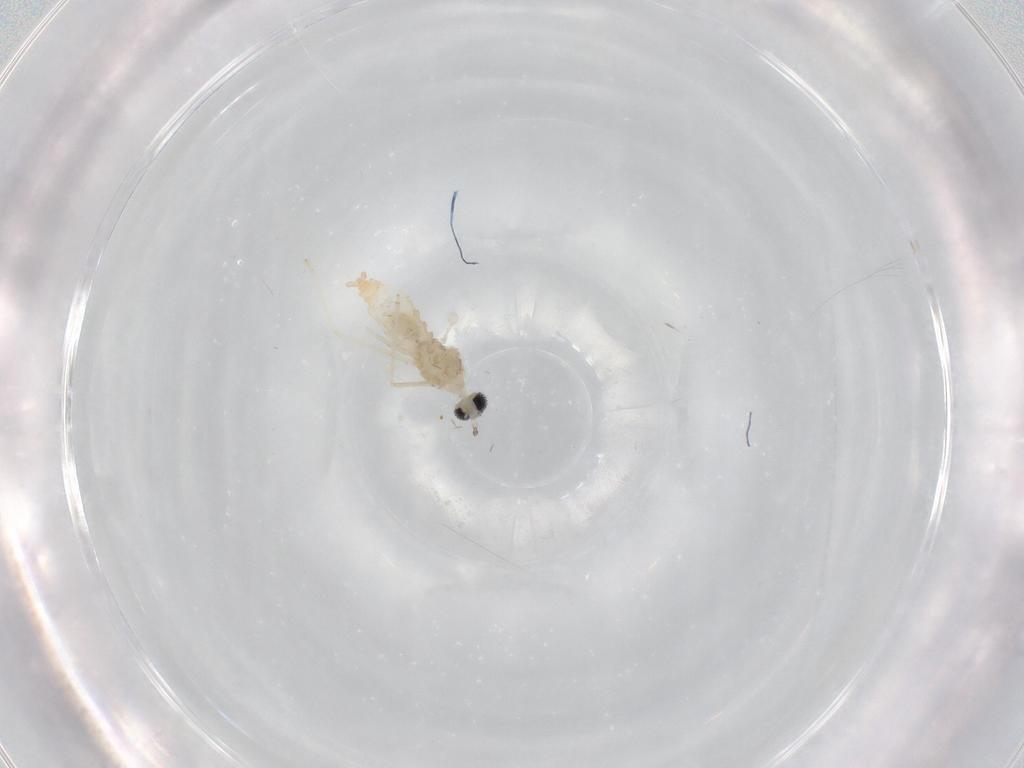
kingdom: Animalia
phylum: Arthropoda
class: Insecta
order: Diptera
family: Cecidomyiidae
